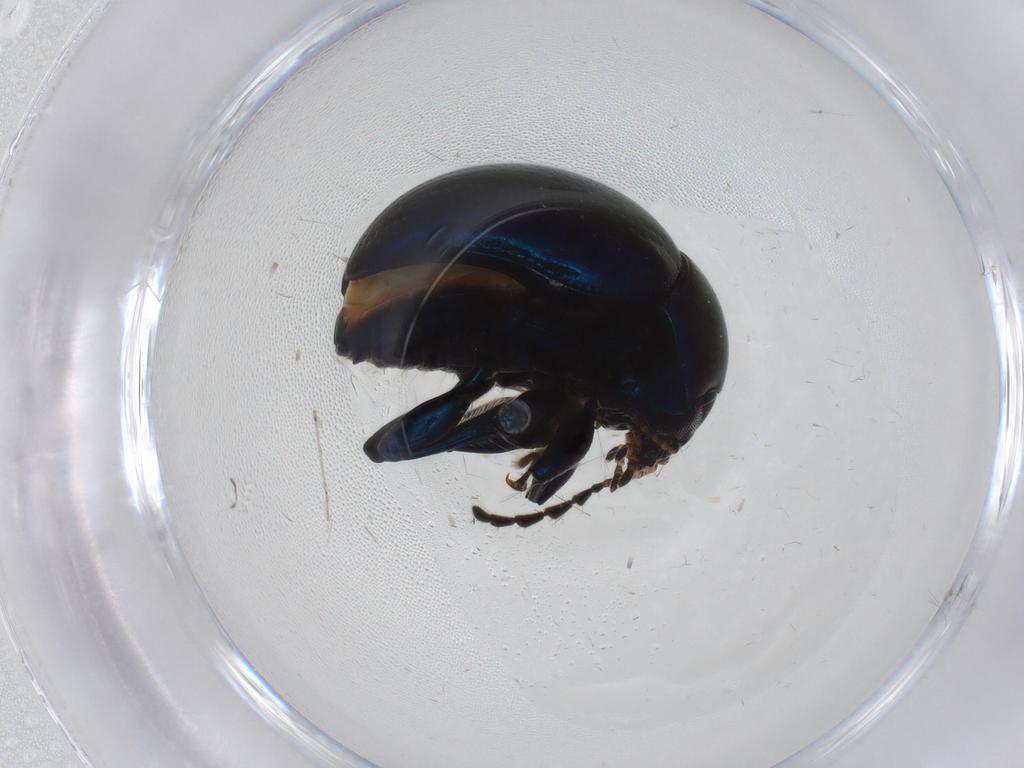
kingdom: Animalia
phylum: Arthropoda
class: Insecta
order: Coleoptera
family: Chrysomelidae
